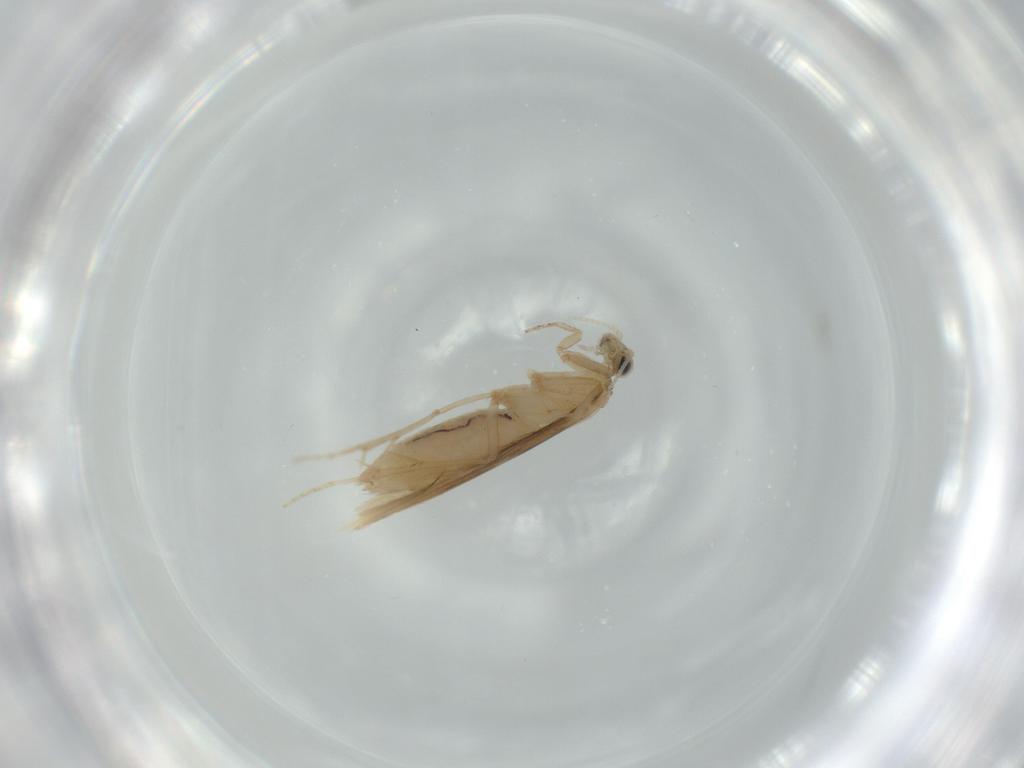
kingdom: Animalia
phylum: Arthropoda
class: Insecta
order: Trichoptera
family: Hydroptilidae
